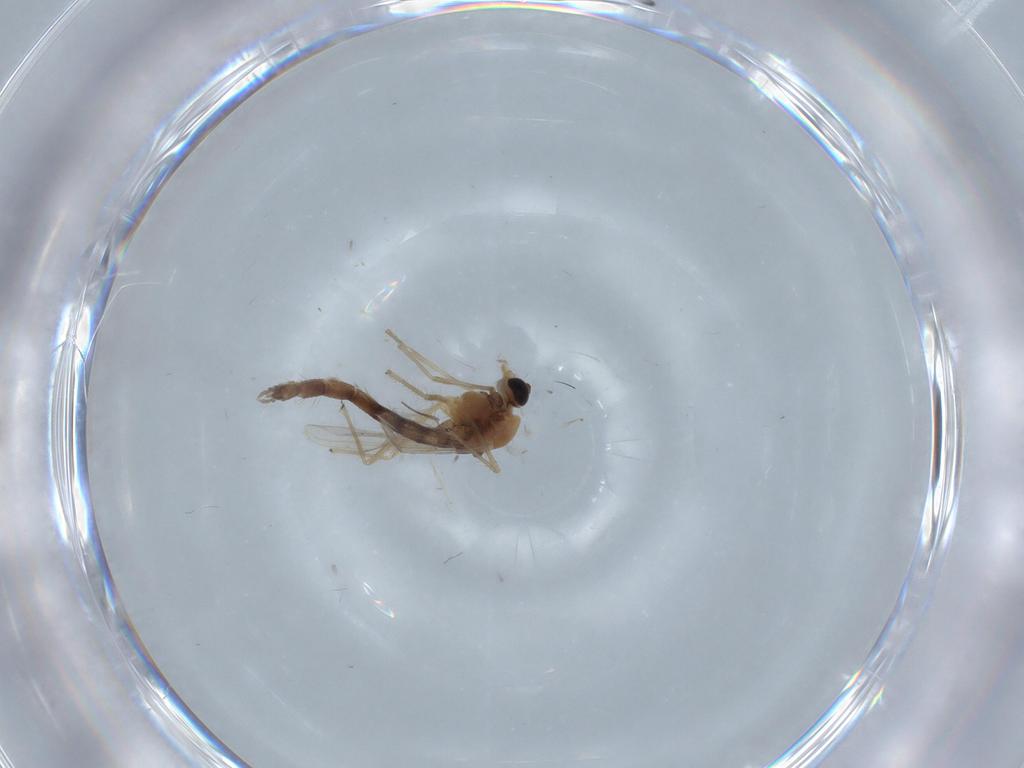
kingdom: Animalia
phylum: Arthropoda
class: Insecta
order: Diptera
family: Chironomidae
